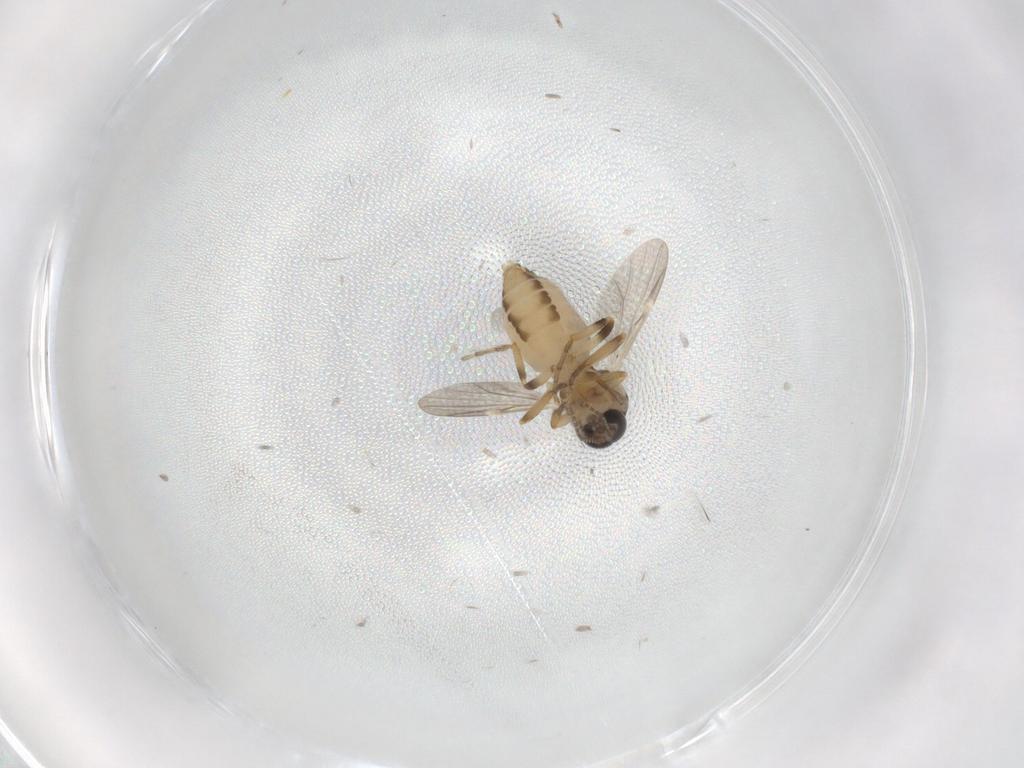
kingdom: Animalia
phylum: Arthropoda
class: Insecta
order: Diptera
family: Ceratopogonidae
